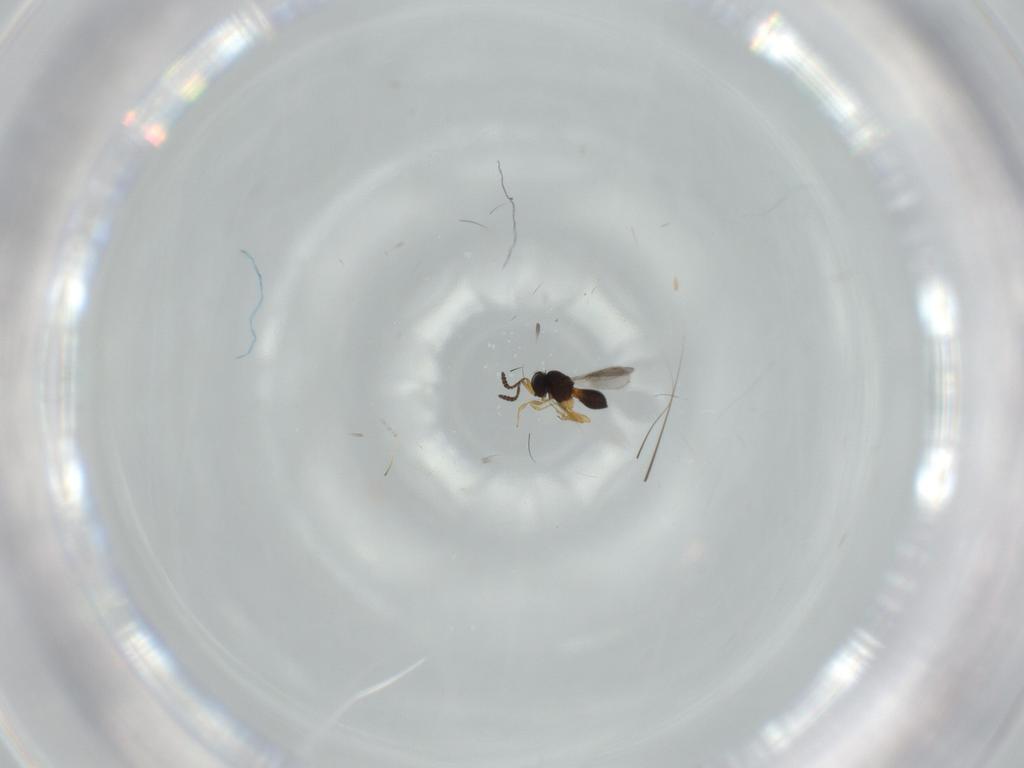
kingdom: Animalia
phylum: Arthropoda
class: Insecta
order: Hymenoptera
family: Scelionidae
